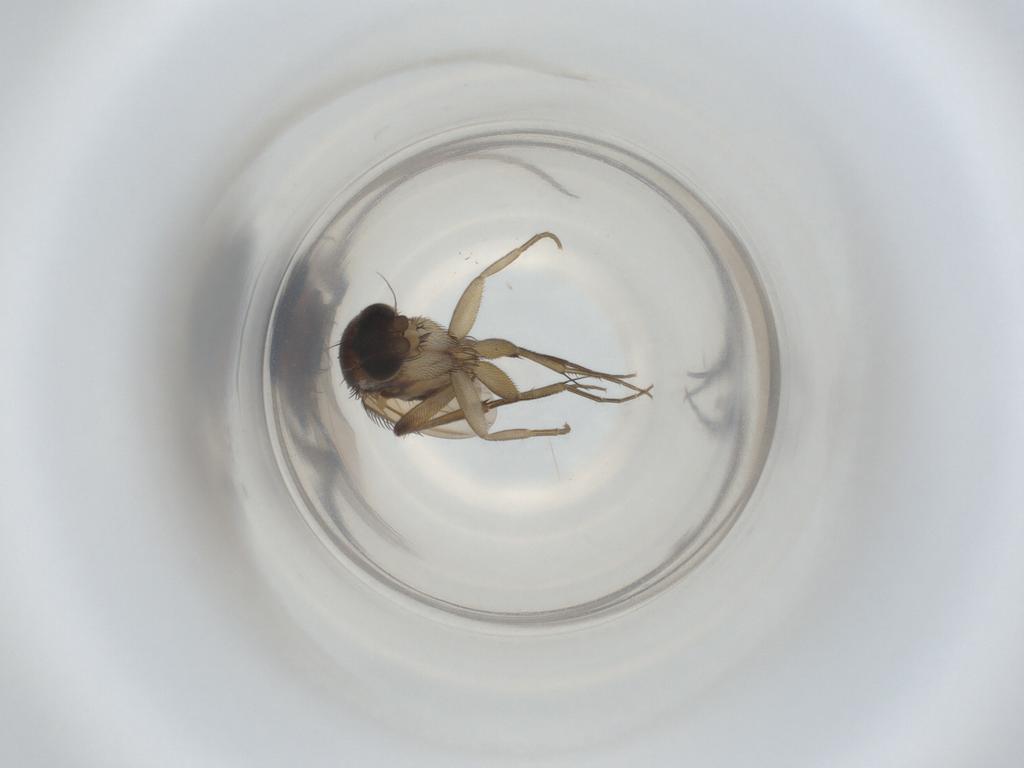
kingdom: Animalia
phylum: Arthropoda
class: Insecta
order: Diptera
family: Phoridae
